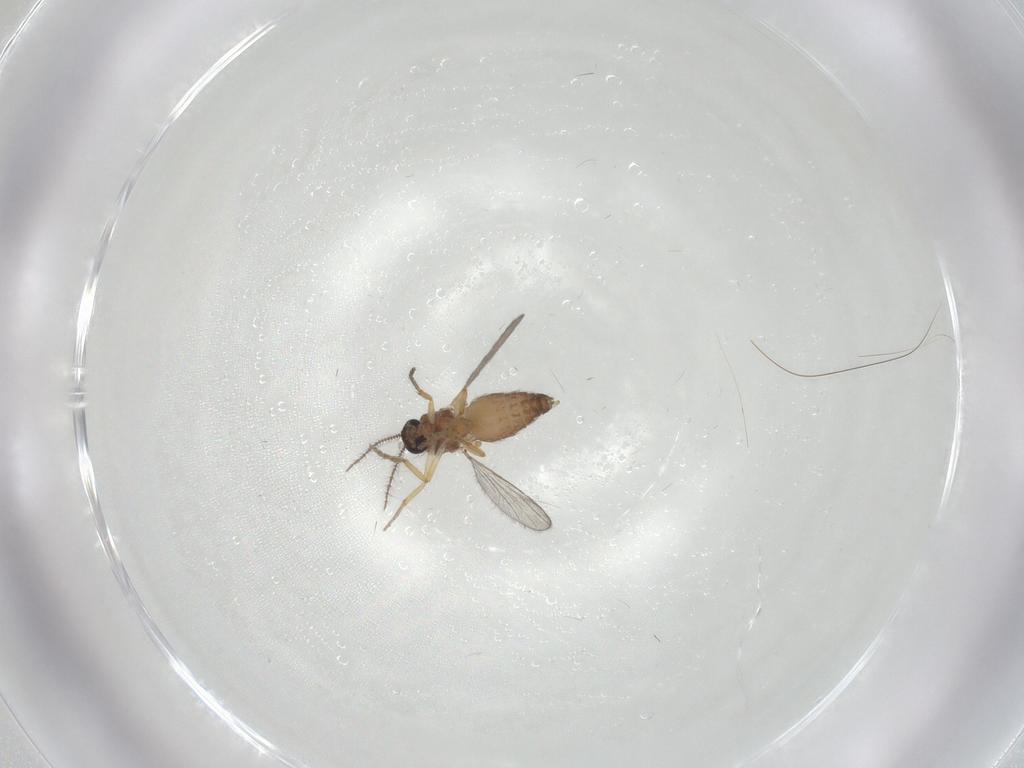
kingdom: Animalia
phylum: Arthropoda
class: Insecta
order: Diptera
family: Ceratopogonidae
